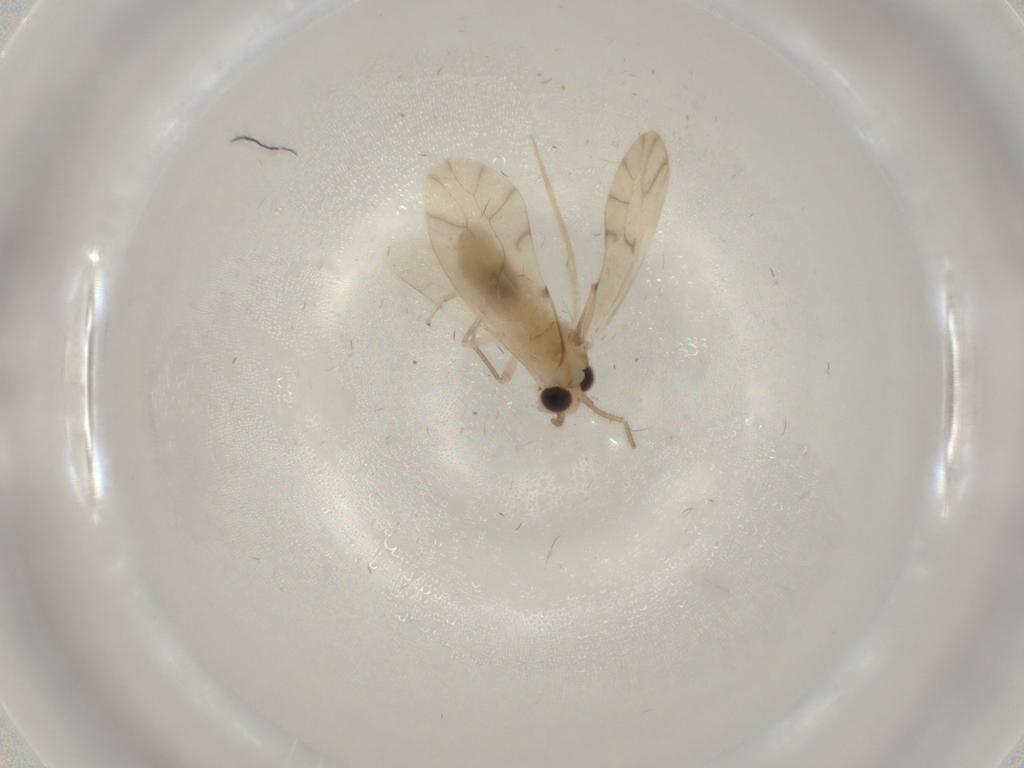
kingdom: Animalia
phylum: Arthropoda
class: Insecta
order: Psocodea
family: Caeciliusidae
